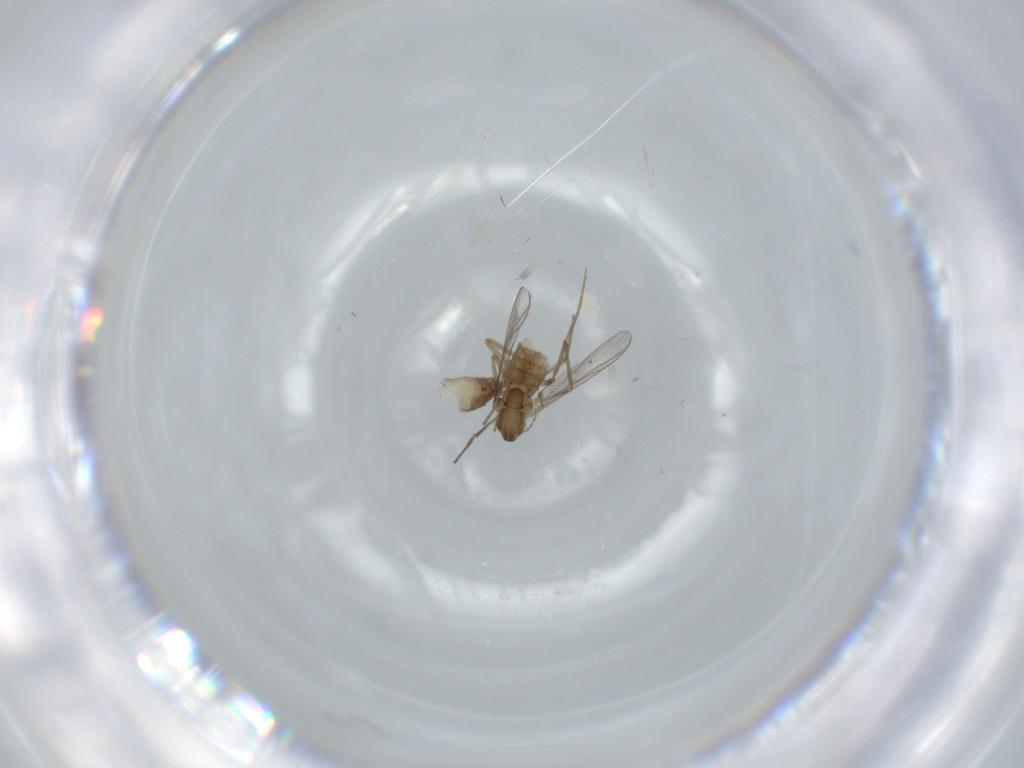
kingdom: Animalia
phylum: Arthropoda
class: Insecta
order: Diptera
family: Chironomidae
